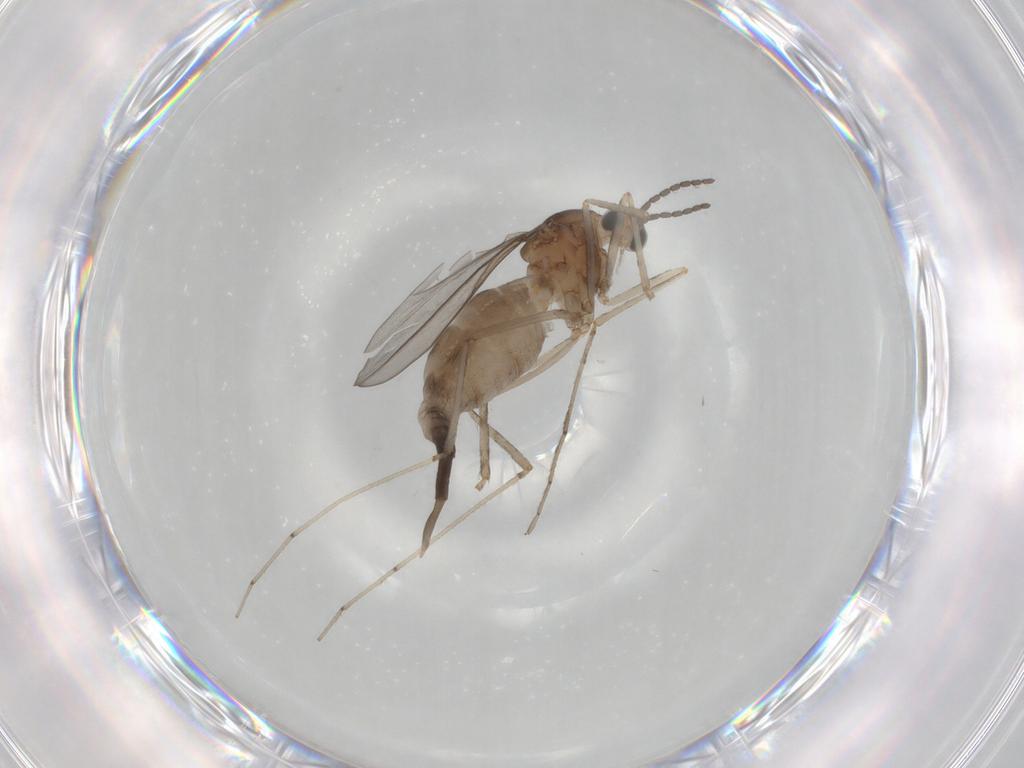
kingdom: Animalia
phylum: Arthropoda
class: Insecta
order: Diptera
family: Cecidomyiidae
